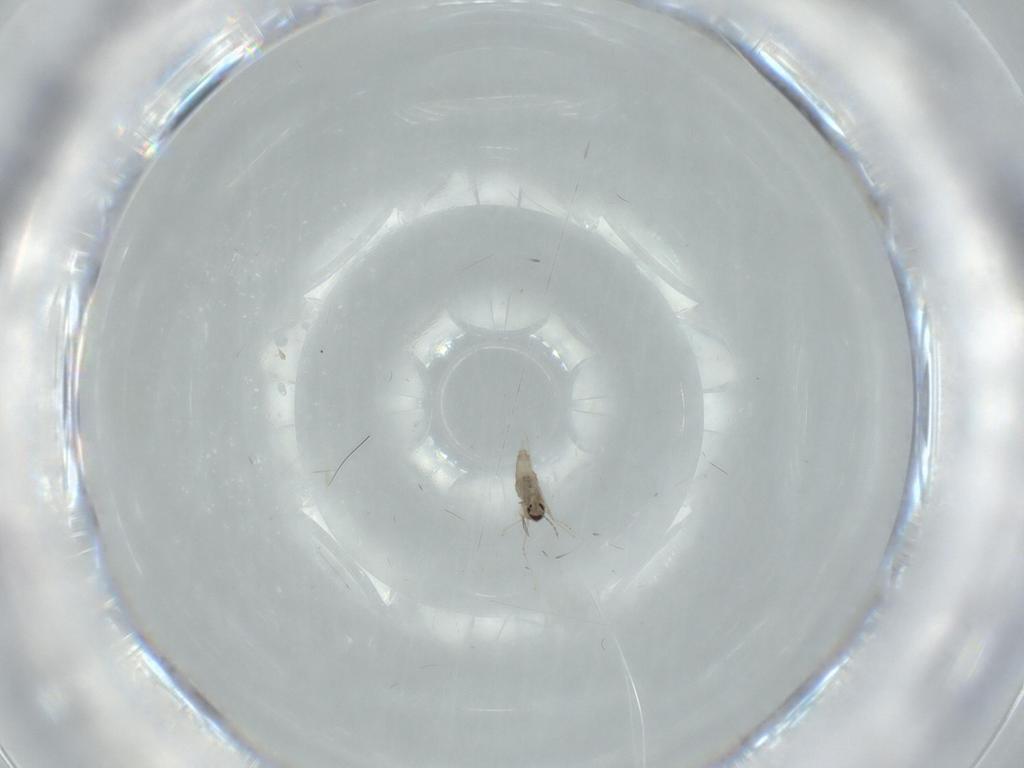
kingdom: Animalia
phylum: Arthropoda
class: Insecta
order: Diptera
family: Cecidomyiidae
